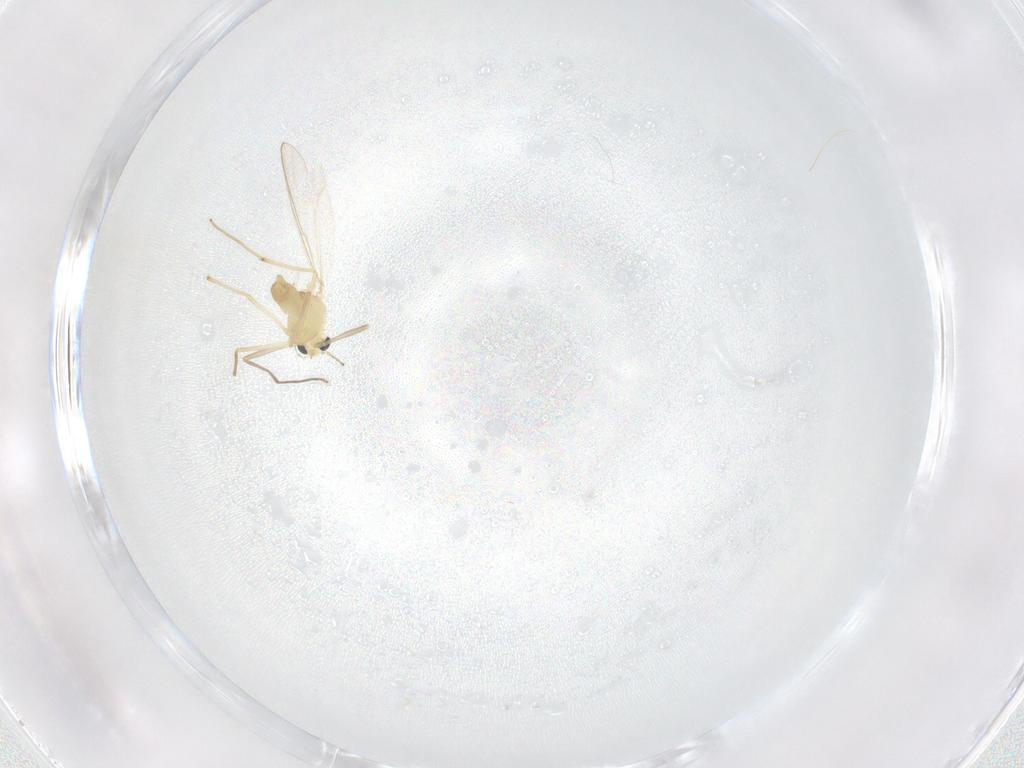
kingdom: Animalia
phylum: Arthropoda
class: Insecta
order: Diptera
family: Chironomidae
